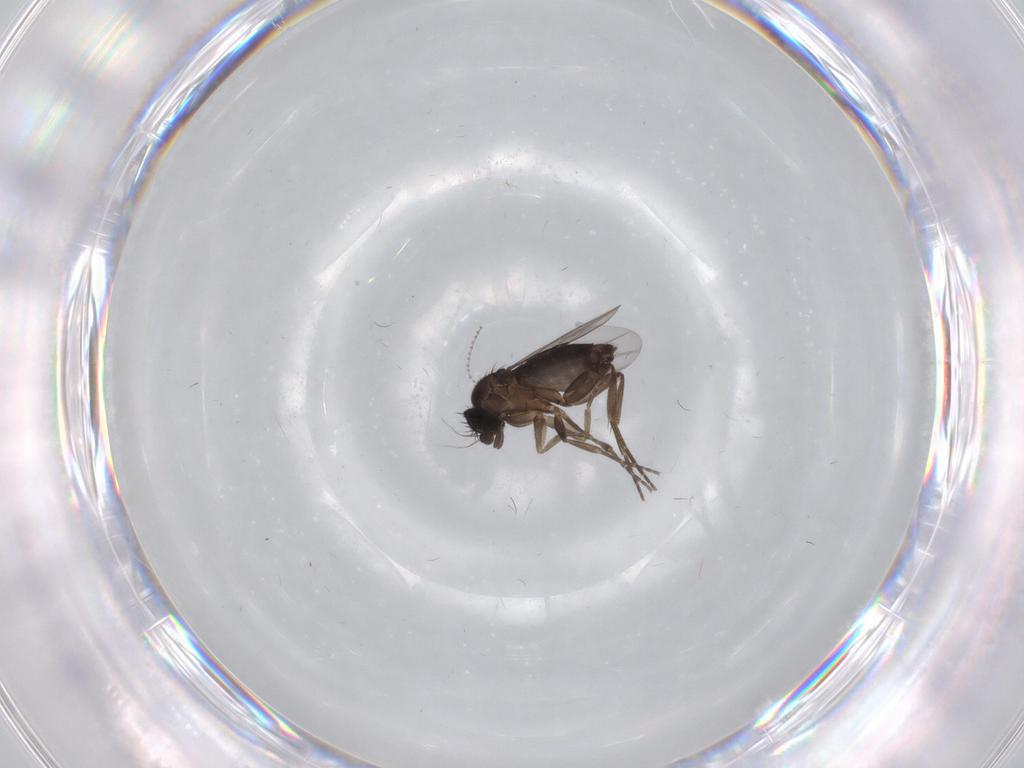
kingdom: Animalia
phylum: Arthropoda
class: Insecta
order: Diptera
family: Phoridae
